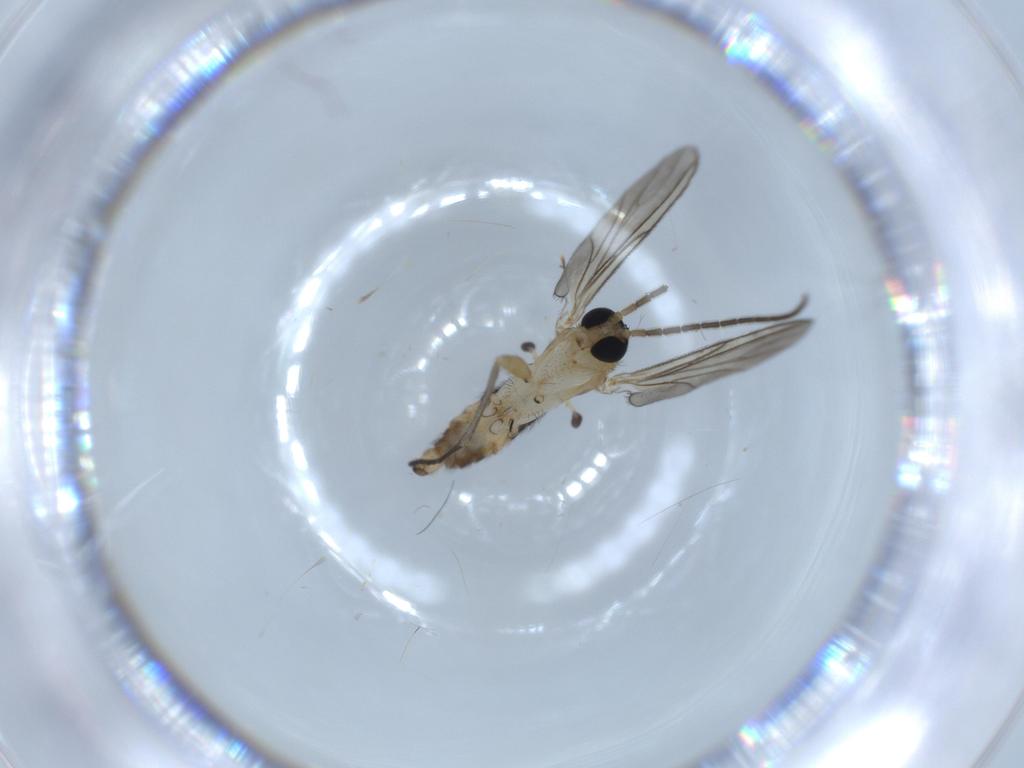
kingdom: Animalia
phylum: Arthropoda
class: Insecta
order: Diptera
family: Sciaridae
